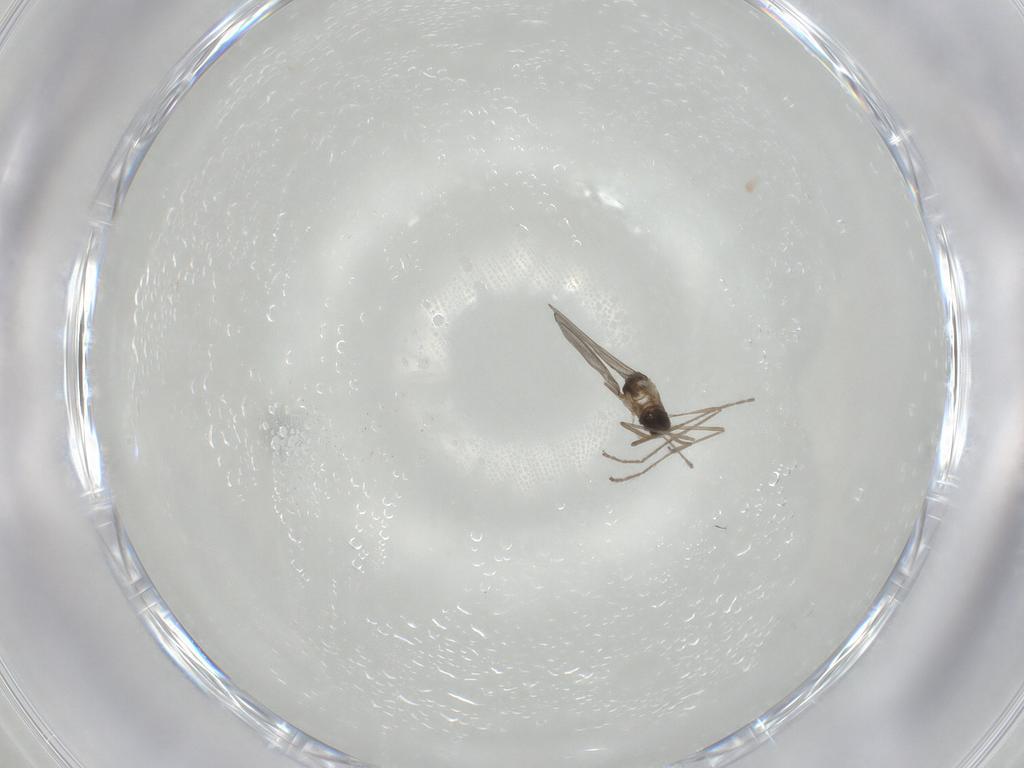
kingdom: Animalia
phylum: Arthropoda
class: Insecta
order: Diptera
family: Cecidomyiidae
